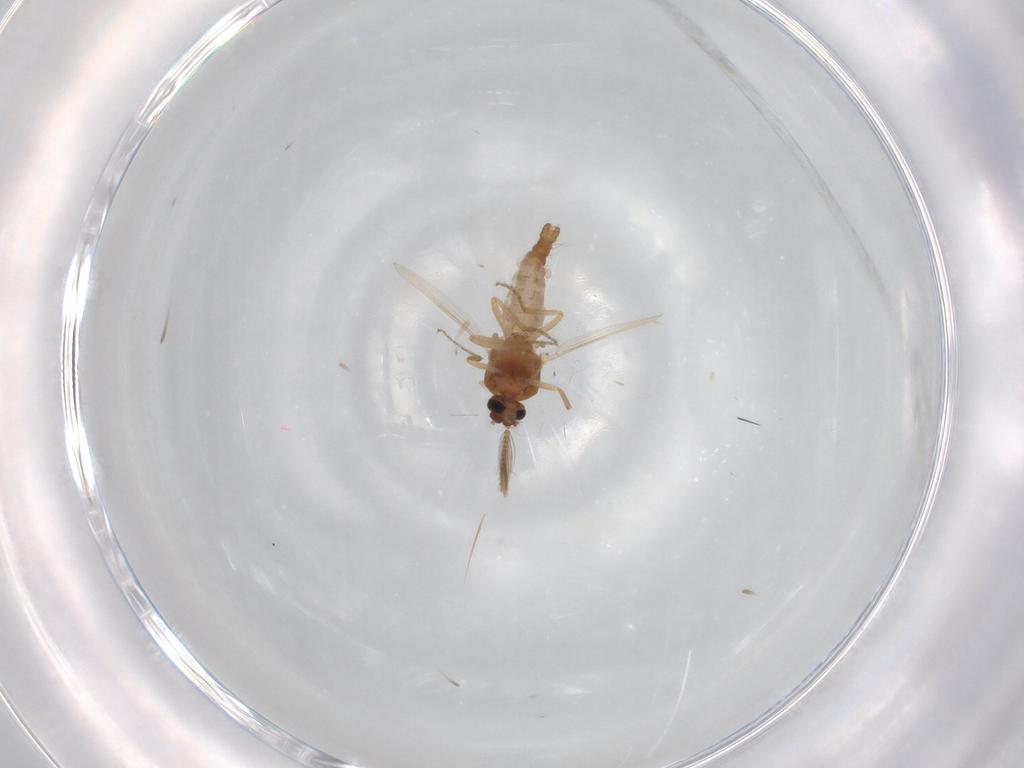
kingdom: Animalia
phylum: Arthropoda
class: Insecta
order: Diptera
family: Ceratopogonidae
